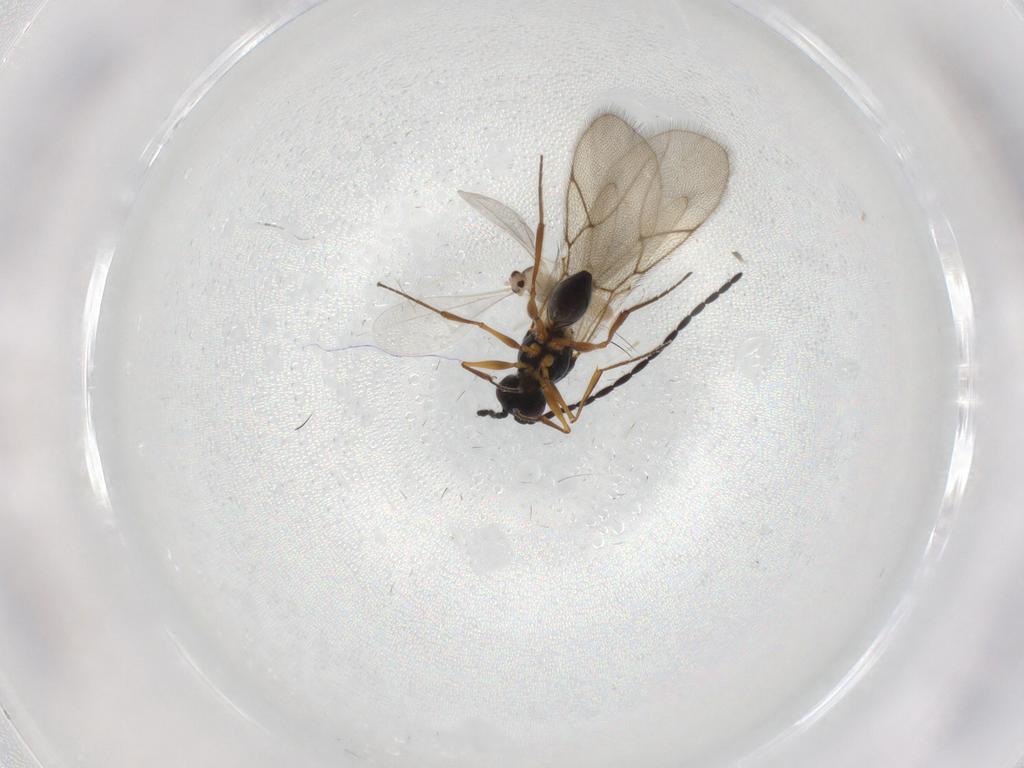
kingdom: Animalia
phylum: Arthropoda
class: Insecta
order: Hymenoptera
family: Figitidae
